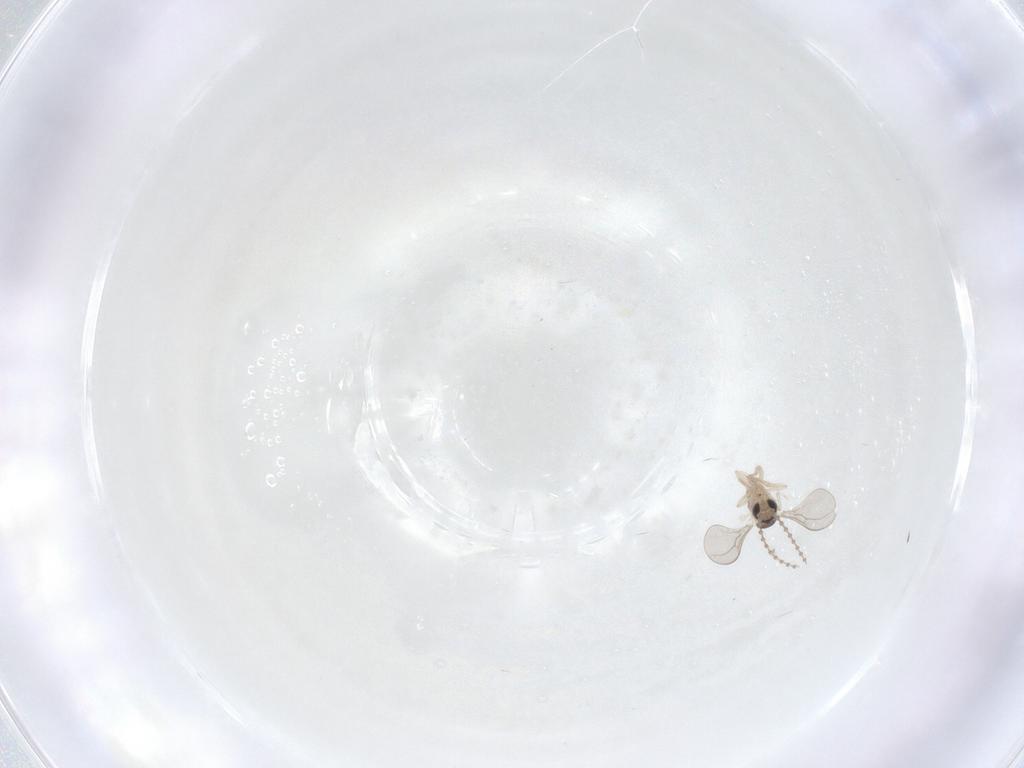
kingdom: Animalia
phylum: Arthropoda
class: Insecta
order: Diptera
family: Cecidomyiidae
